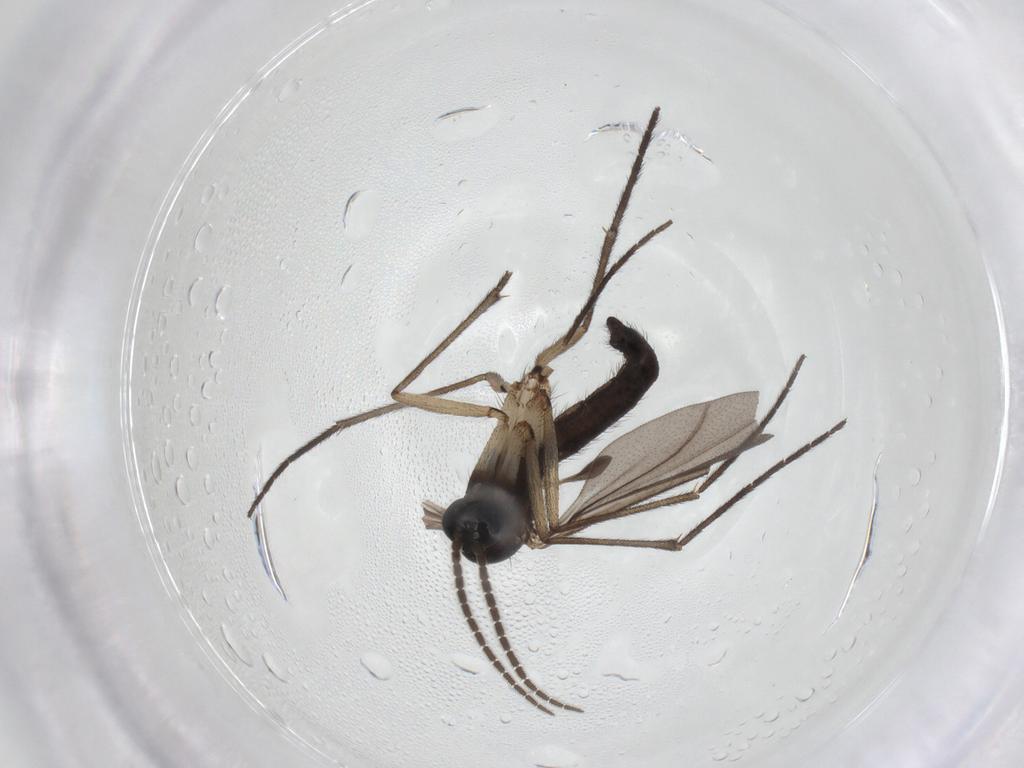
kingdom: Animalia
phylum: Arthropoda
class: Insecta
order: Diptera
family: Sciaridae
